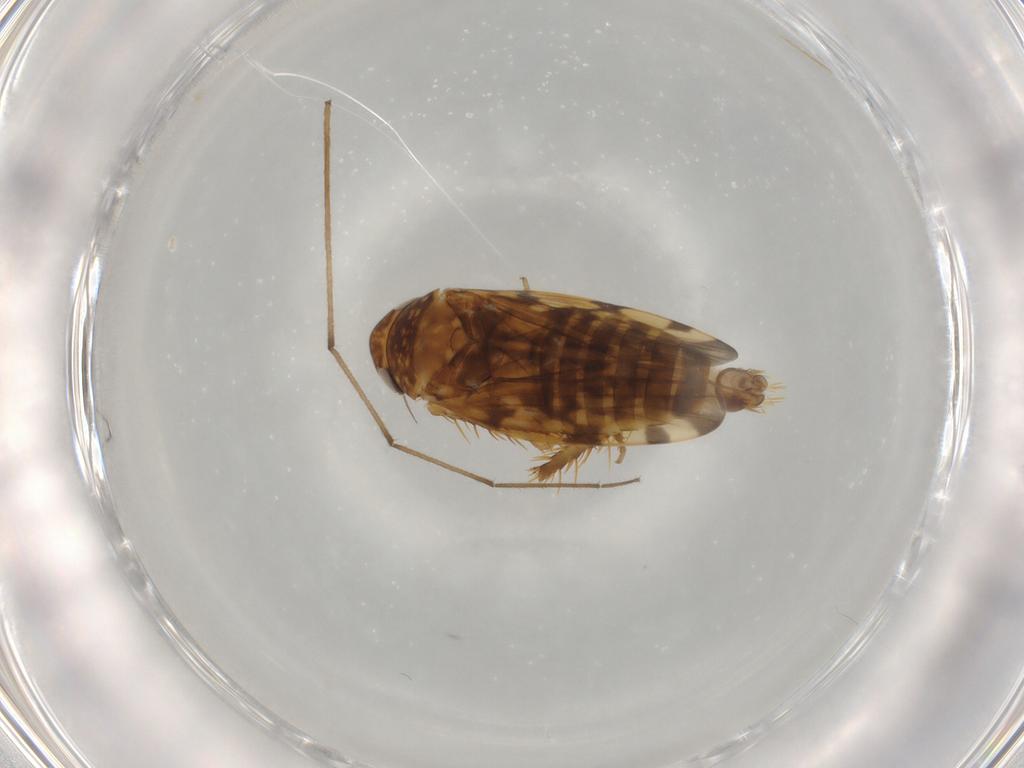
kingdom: Animalia
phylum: Arthropoda
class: Insecta
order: Hemiptera
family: Cicadellidae
